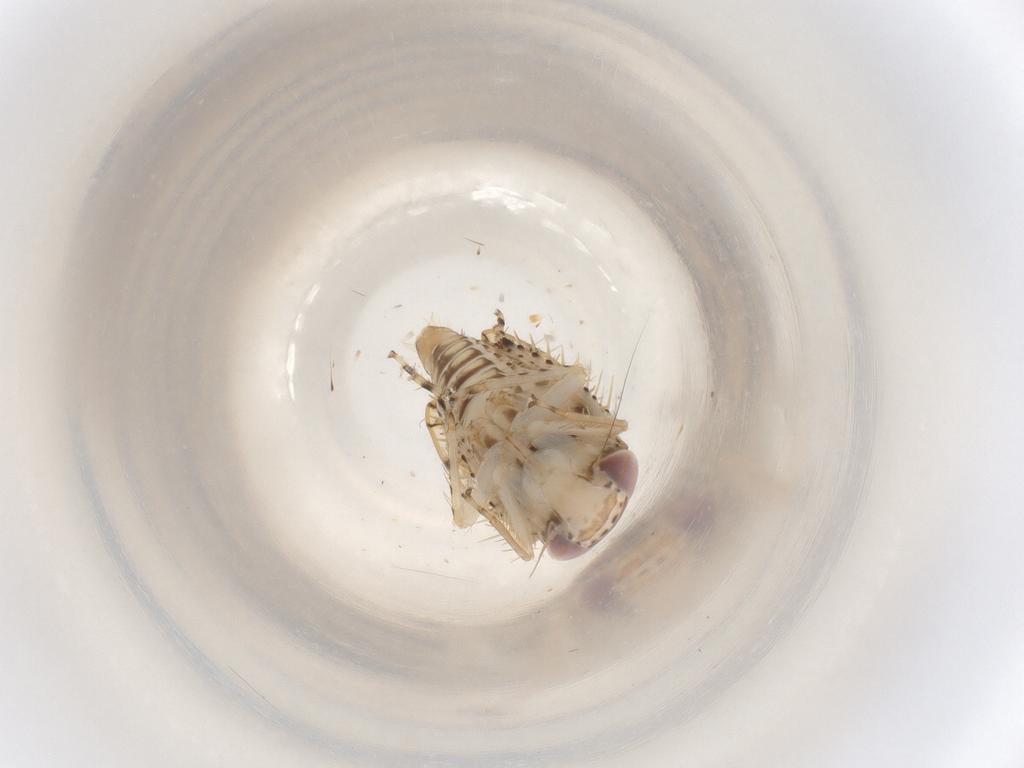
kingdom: Animalia
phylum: Arthropoda
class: Insecta
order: Hemiptera
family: Cicadellidae
